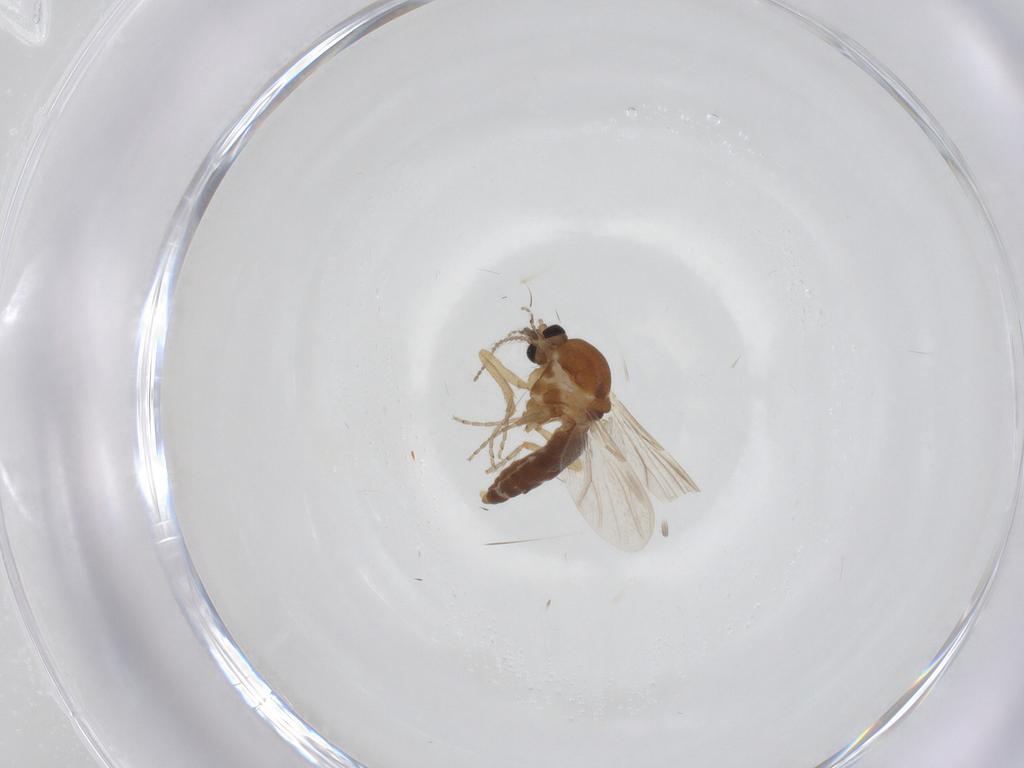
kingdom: Animalia
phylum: Arthropoda
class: Insecta
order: Diptera
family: Ceratopogonidae
